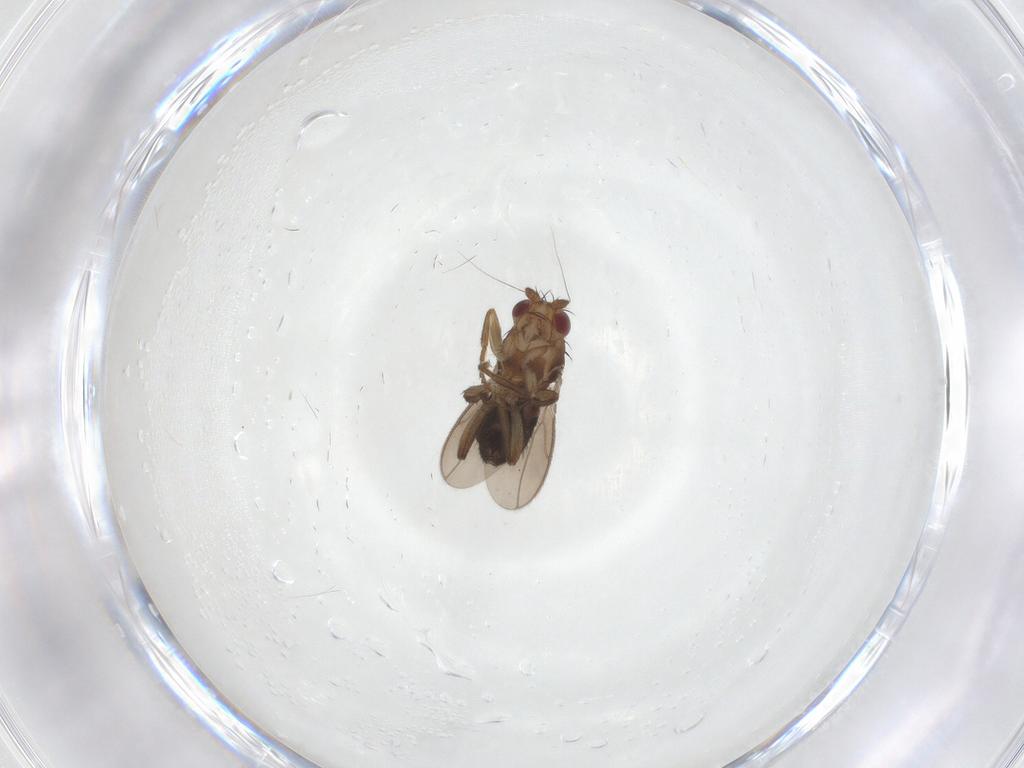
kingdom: Animalia
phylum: Arthropoda
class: Insecta
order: Diptera
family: Sphaeroceridae
